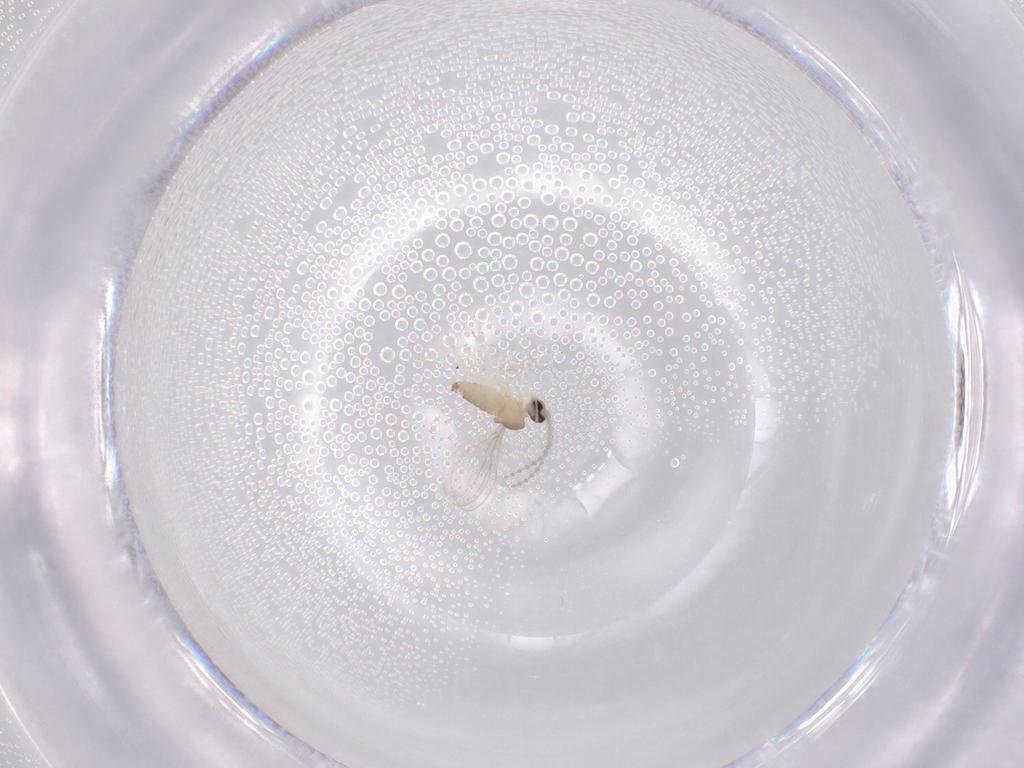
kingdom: Animalia
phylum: Arthropoda
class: Insecta
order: Diptera
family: Cecidomyiidae
